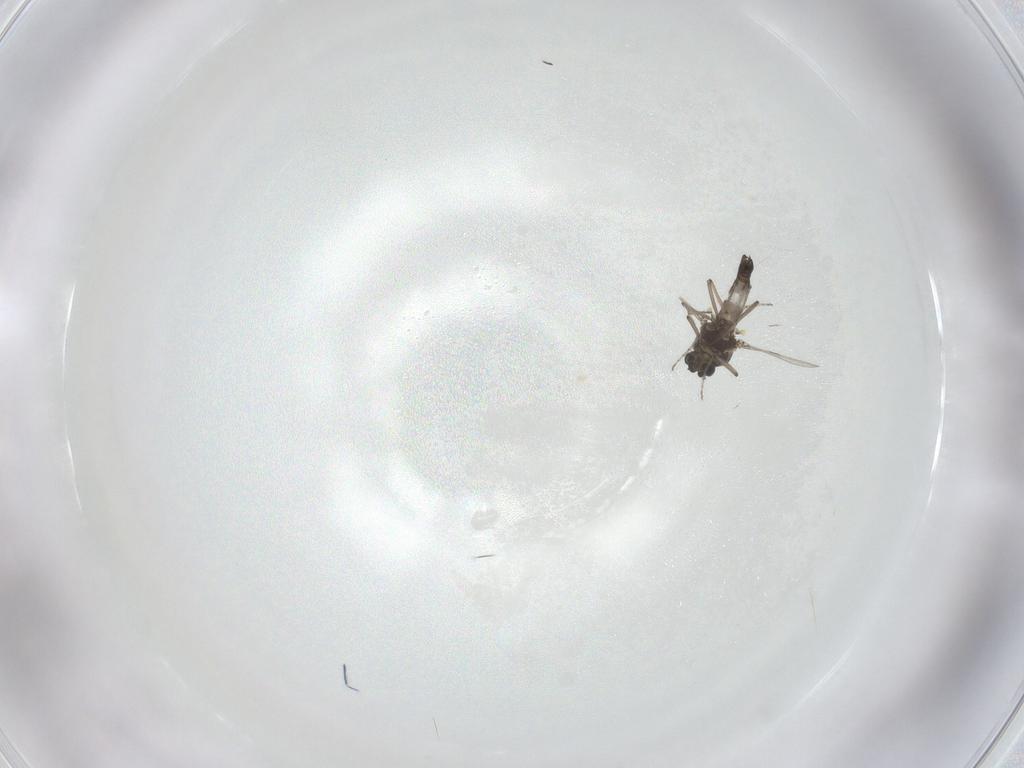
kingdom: Animalia
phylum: Arthropoda
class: Insecta
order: Diptera
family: Ceratopogonidae
